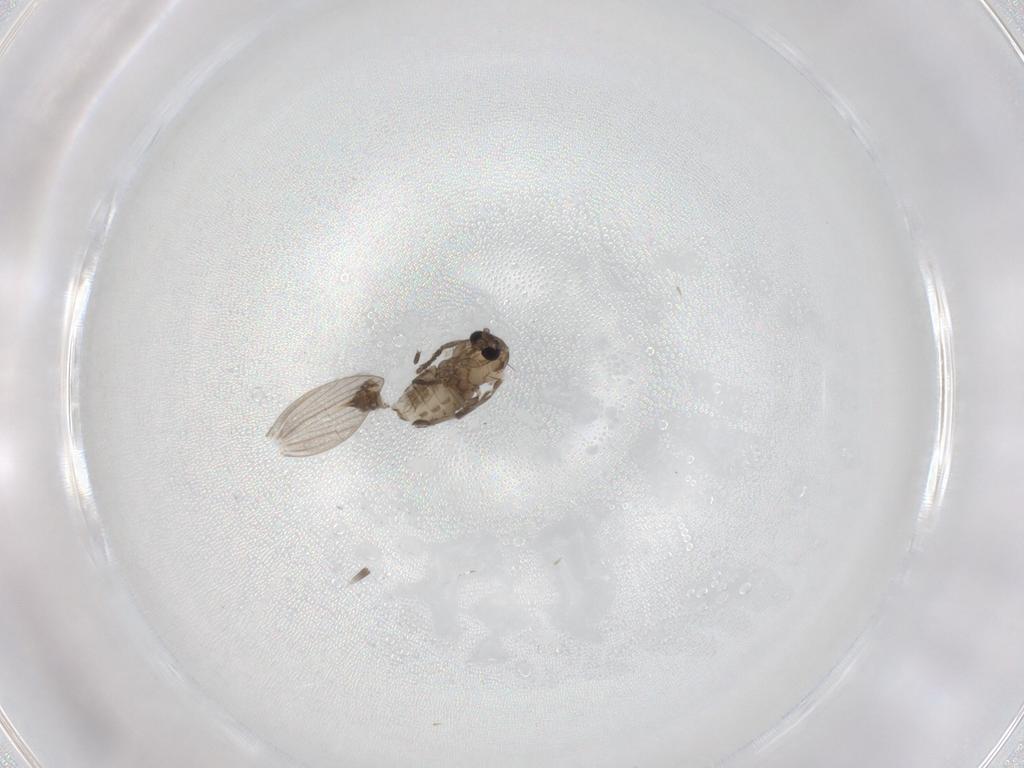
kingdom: Animalia
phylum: Arthropoda
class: Insecta
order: Diptera
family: Psychodidae
